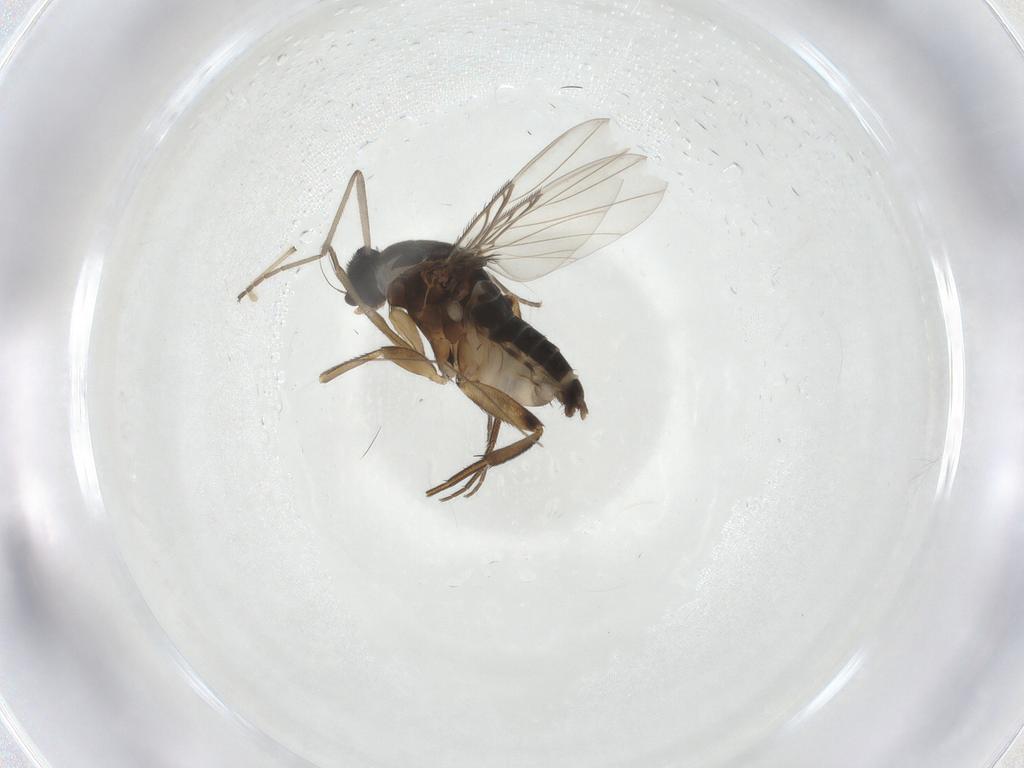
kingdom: Animalia
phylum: Arthropoda
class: Insecta
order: Diptera
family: Phoridae
